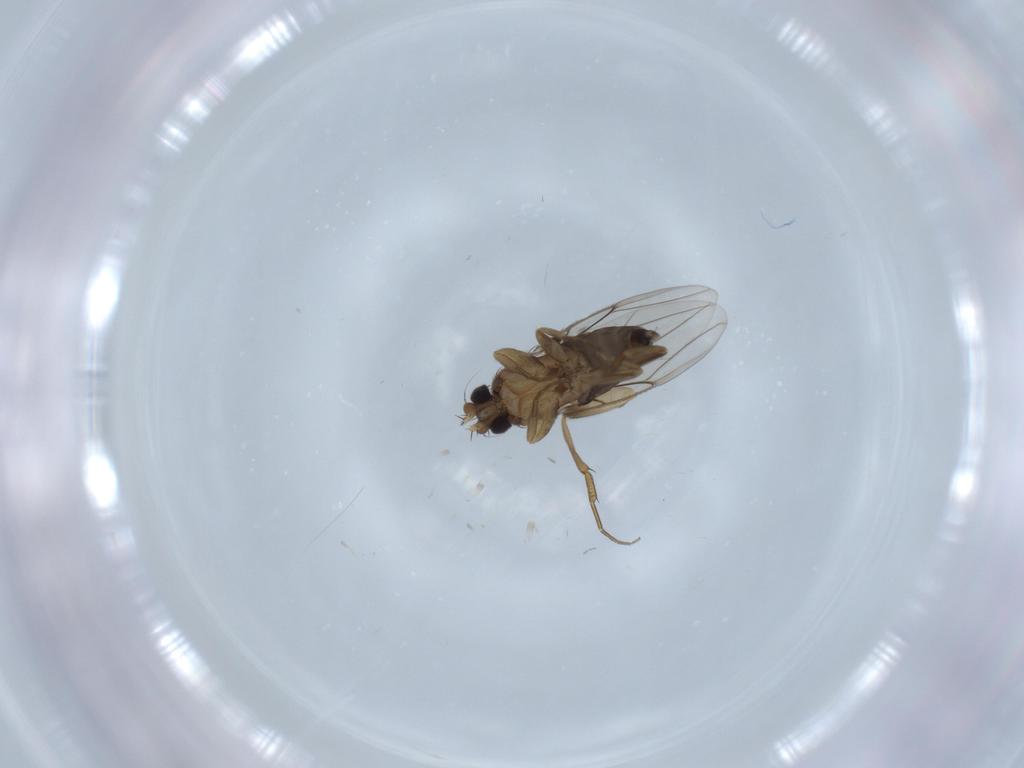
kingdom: Animalia
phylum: Arthropoda
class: Insecta
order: Diptera
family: Phoridae
